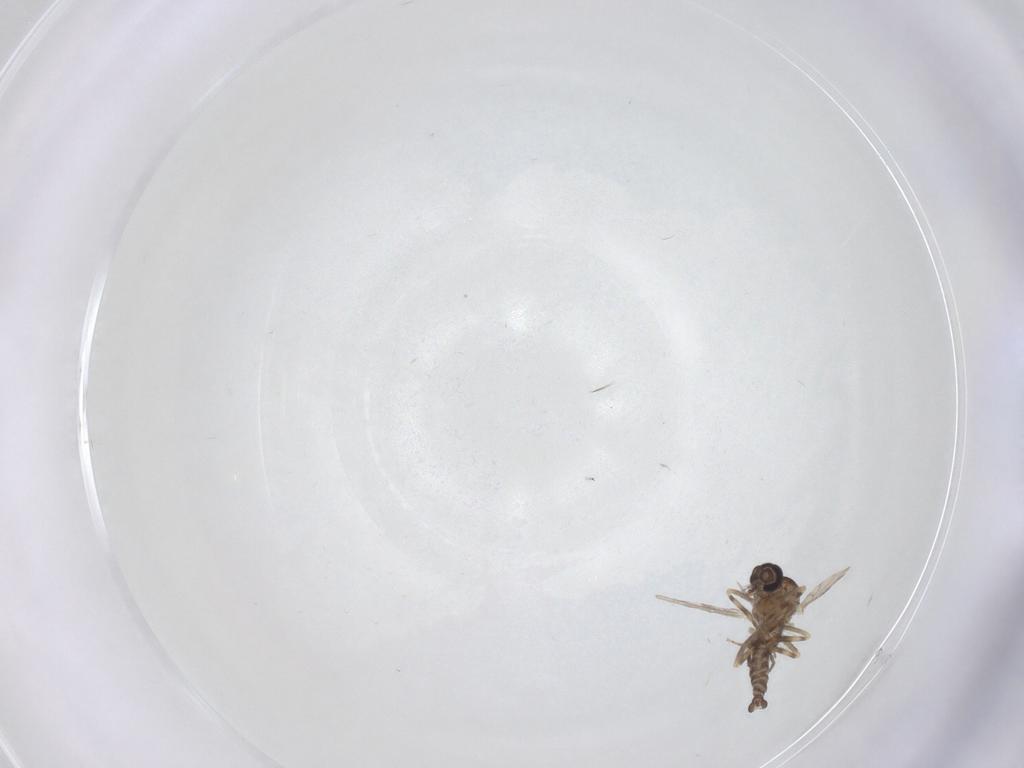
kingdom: Animalia
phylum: Arthropoda
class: Insecta
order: Diptera
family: Ceratopogonidae
